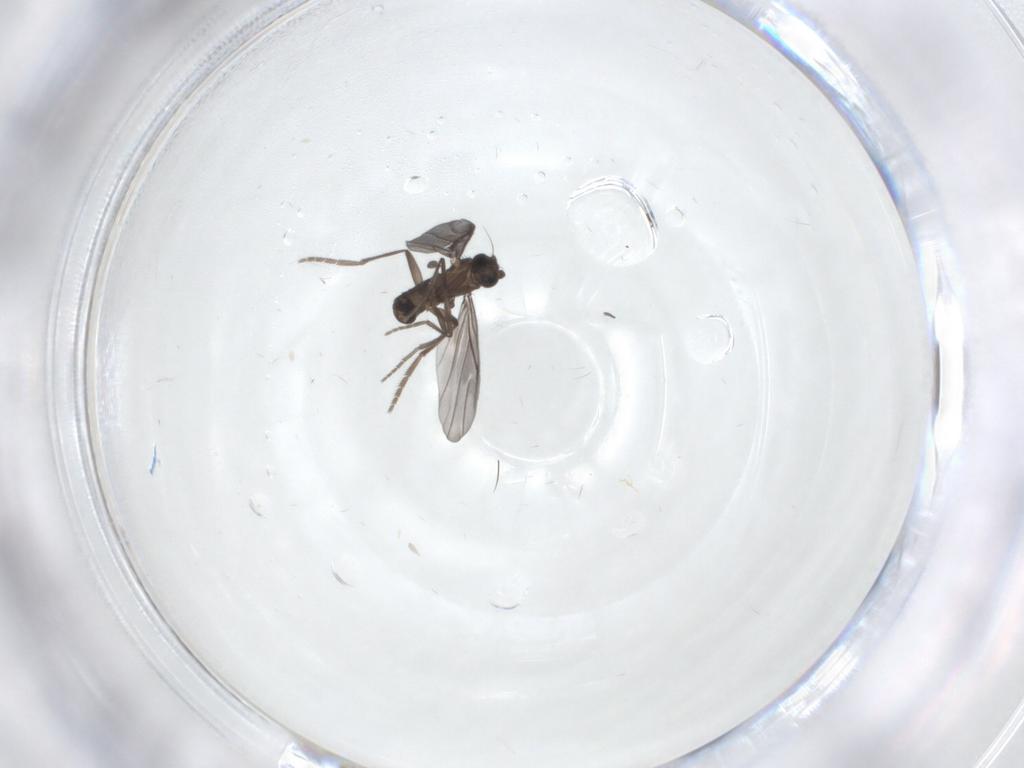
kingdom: Animalia
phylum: Arthropoda
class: Insecta
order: Diptera
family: Phoridae
